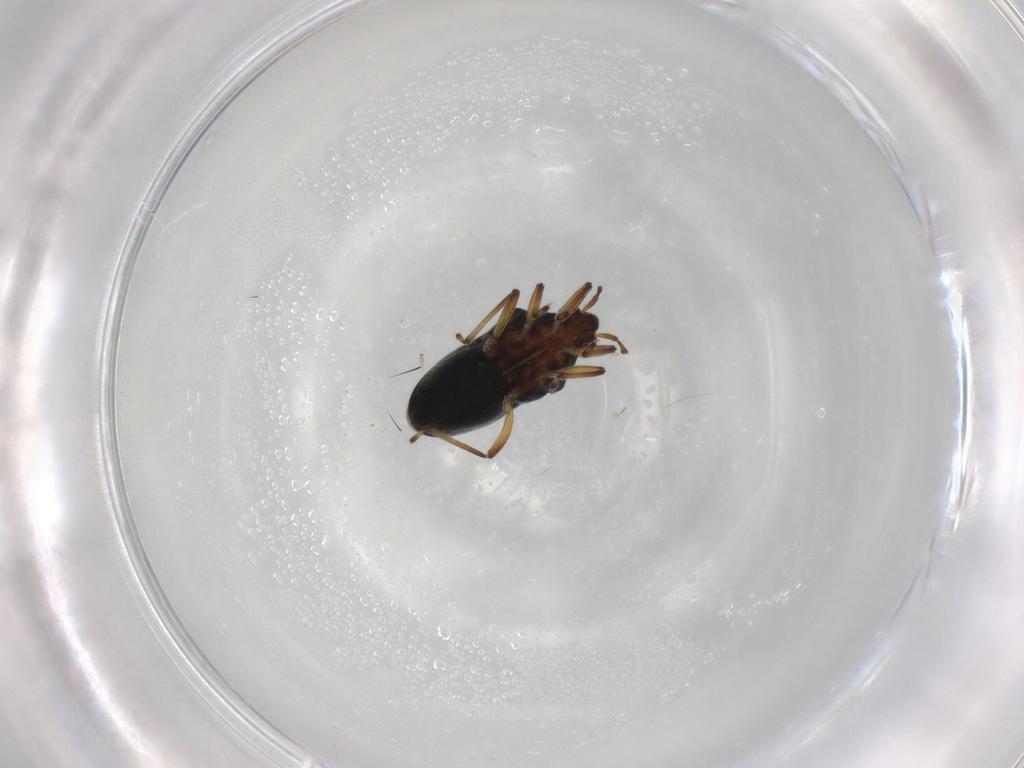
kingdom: Animalia
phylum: Arthropoda
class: Insecta
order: Hemiptera
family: Hebridae
